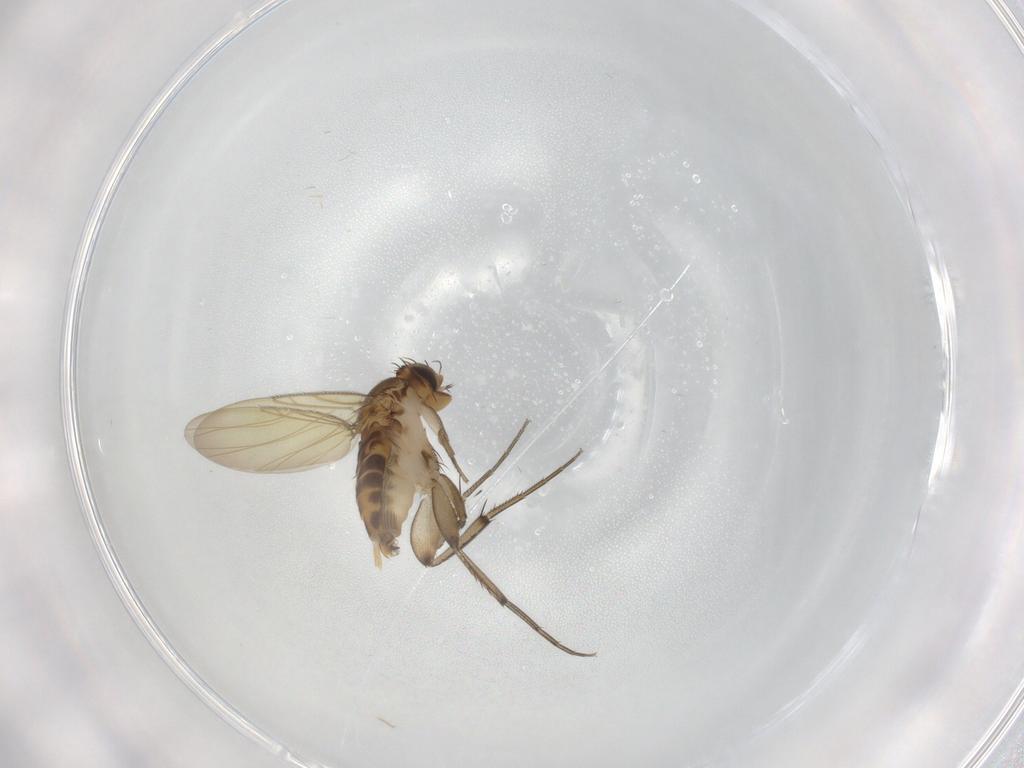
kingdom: Animalia
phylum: Arthropoda
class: Insecta
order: Diptera
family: Phoridae
